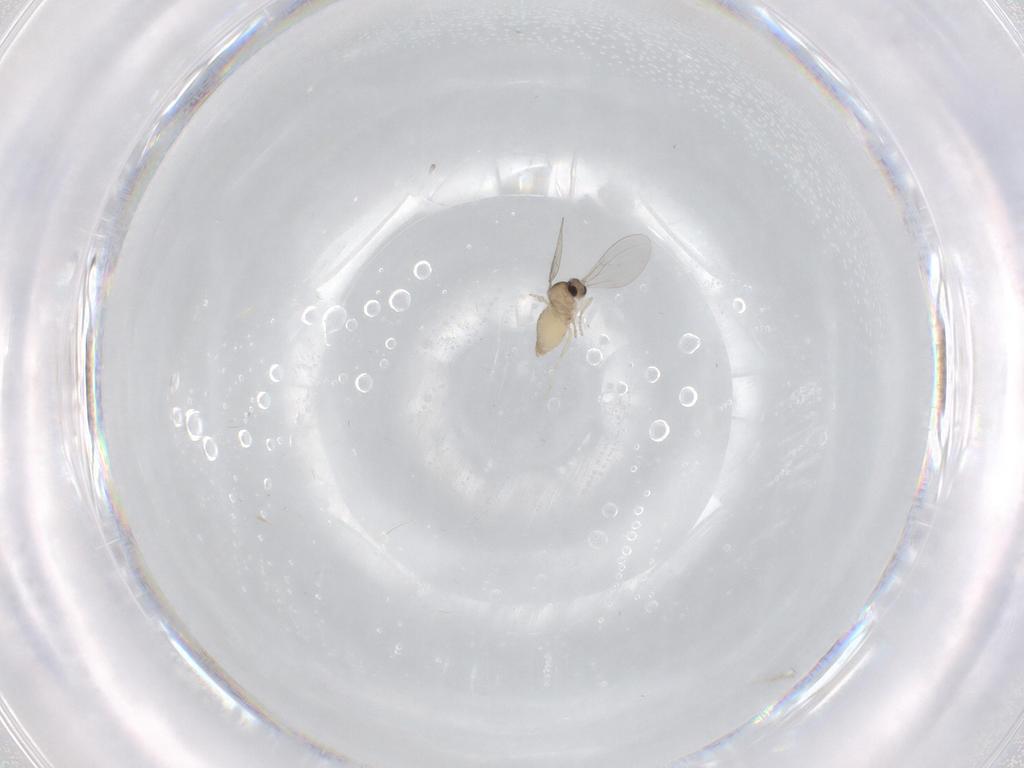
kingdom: Animalia
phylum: Arthropoda
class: Insecta
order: Diptera
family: Cecidomyiidae
